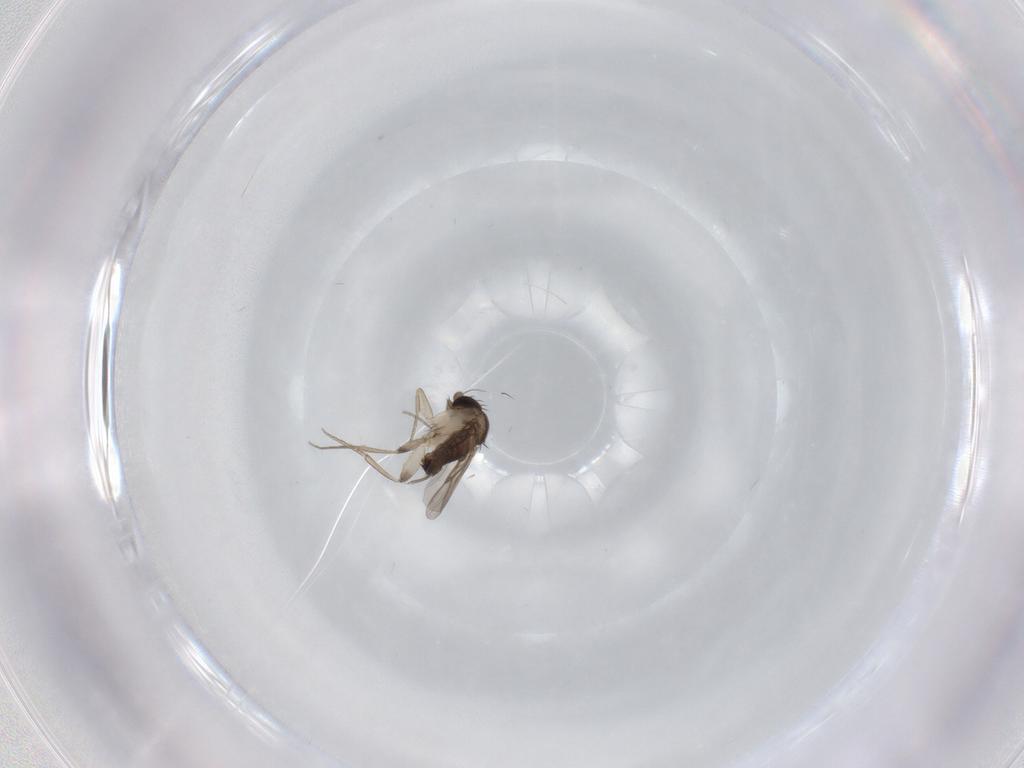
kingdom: Animalia
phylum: Arthropoda
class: Insecta
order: Diptera
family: Phoridae
